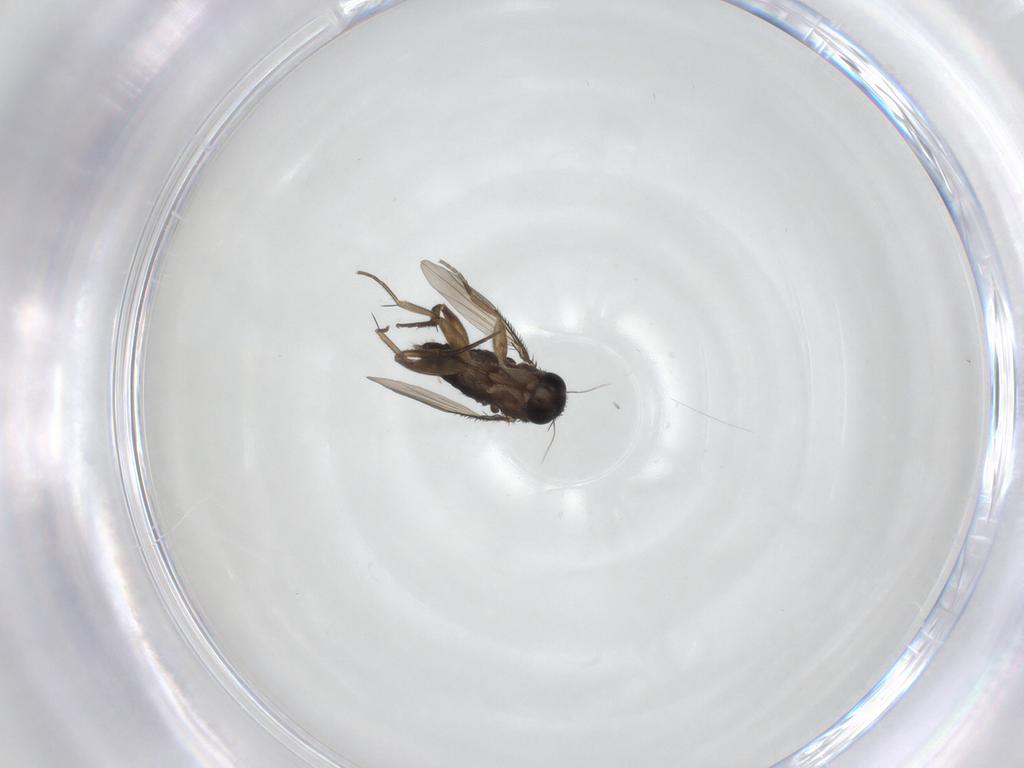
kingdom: Animalia
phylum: Arthropoda
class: Insecta
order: Diptera
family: Phoridae
